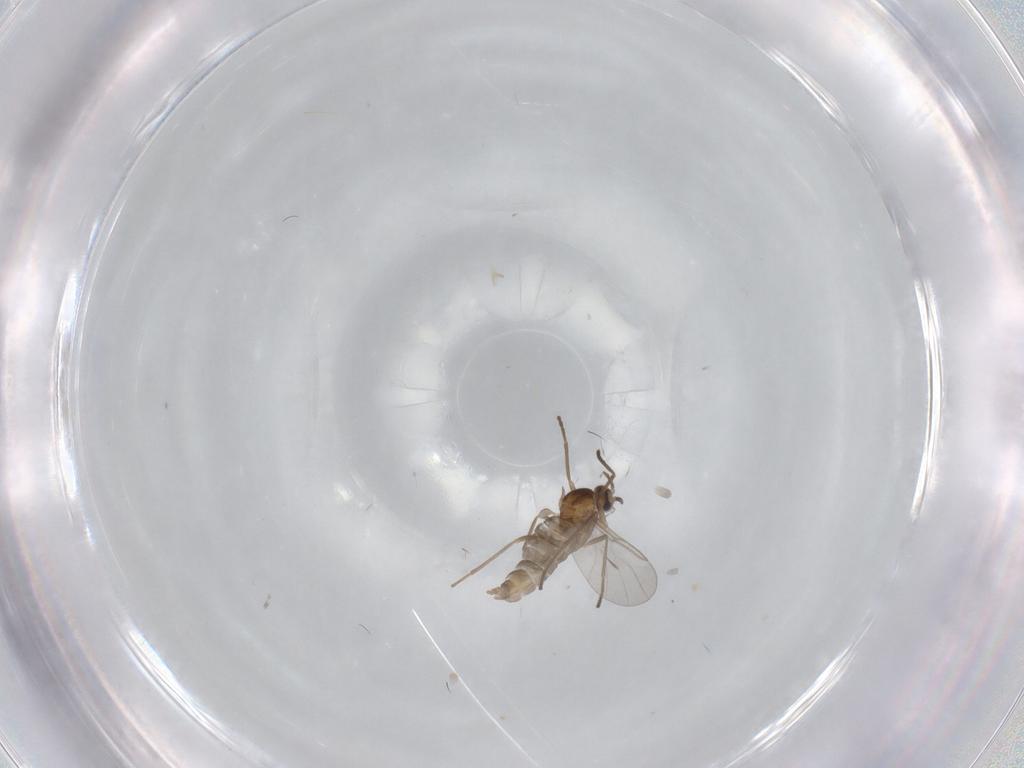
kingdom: Animalia
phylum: Arthropoda
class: Insecta
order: Diptera
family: Cecidomyiidae
